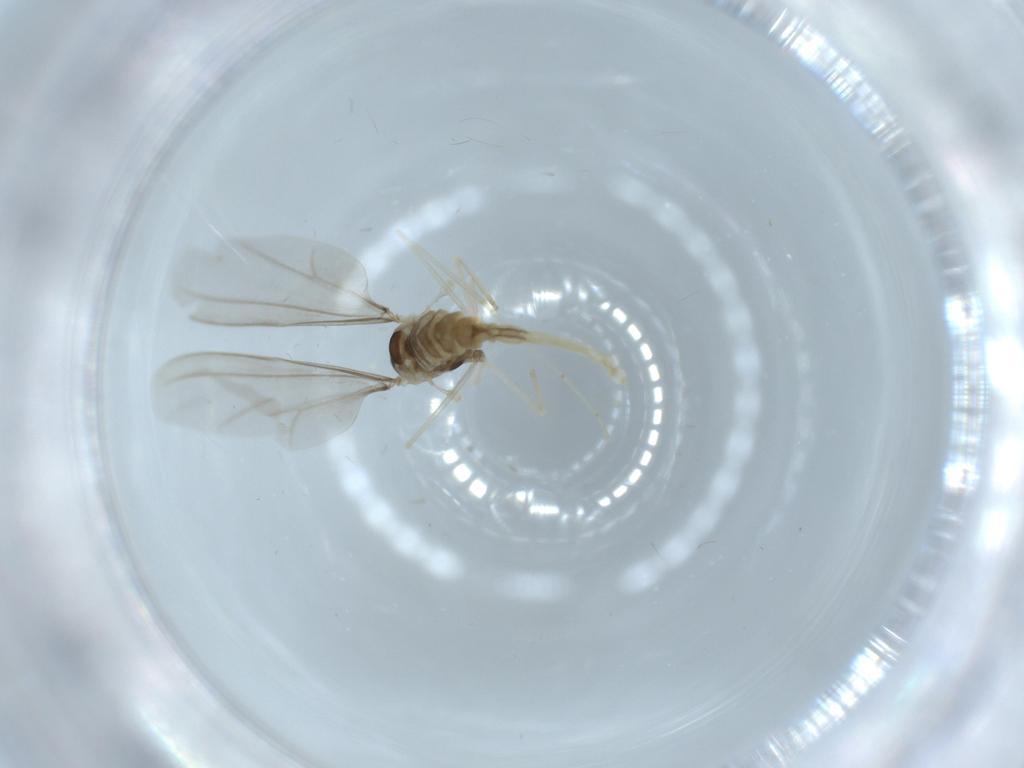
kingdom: Animalia
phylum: Arthropoda
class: Insecta
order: Diptera
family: Cecidomyiidae
